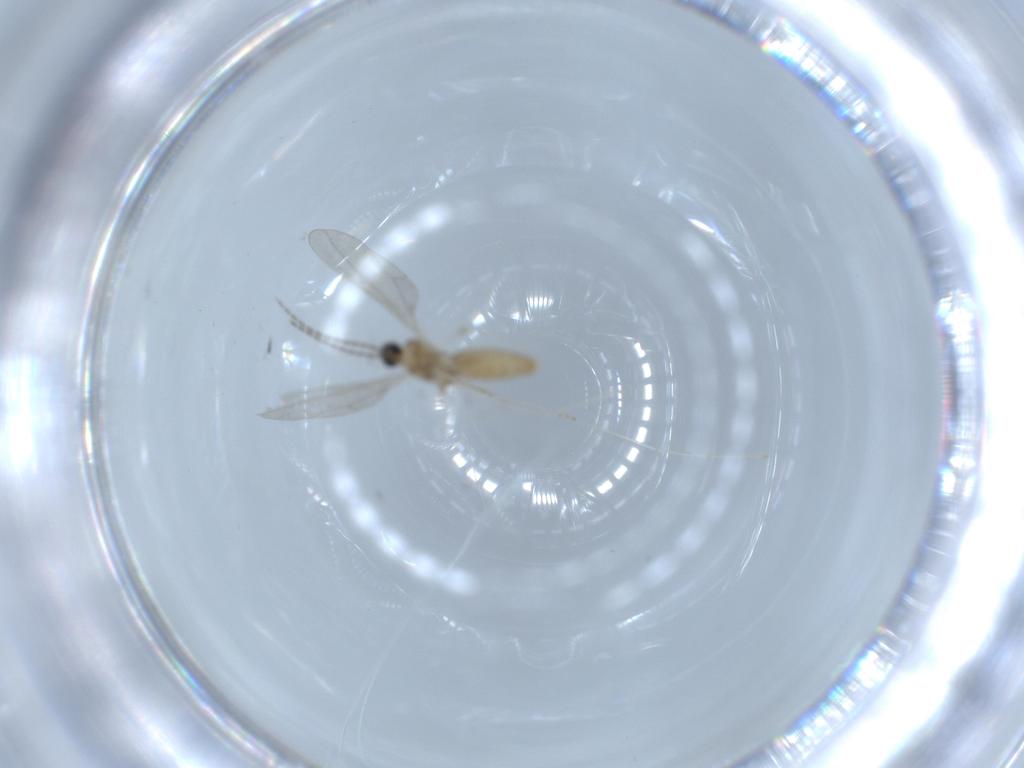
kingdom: Animalia
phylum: Arthropoda
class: Insecta
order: Diptera
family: Cecidomyiidae
